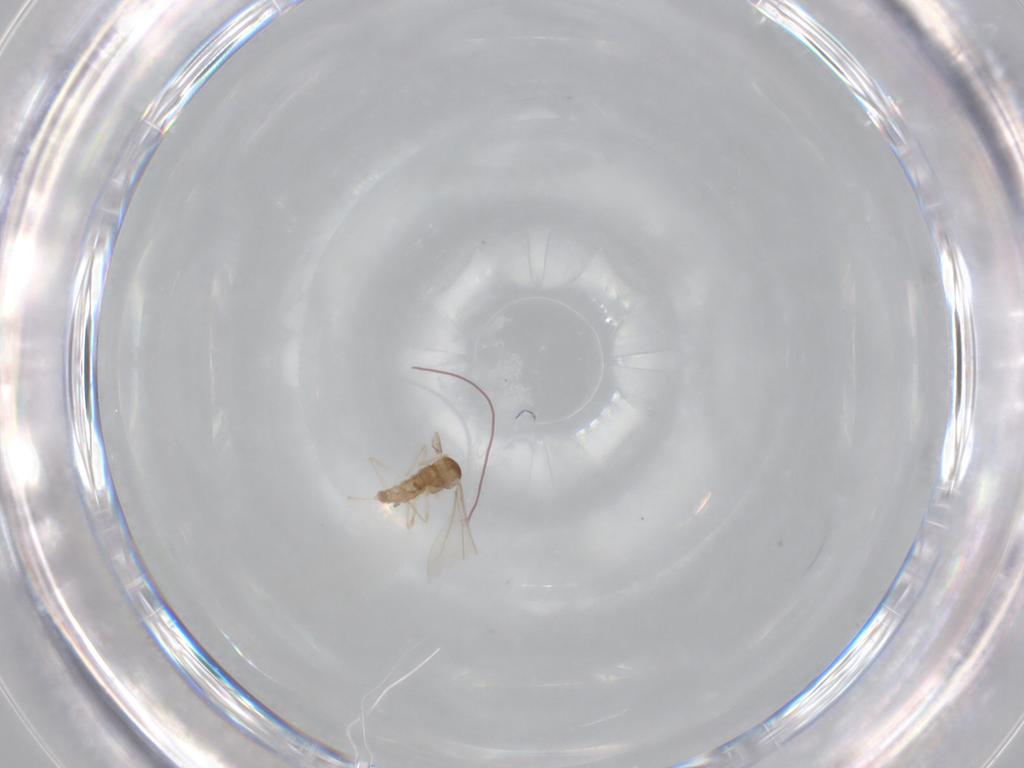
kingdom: Animalia
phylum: Arthropoda
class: Insecta
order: Diptera
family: Cecidomyiidae
